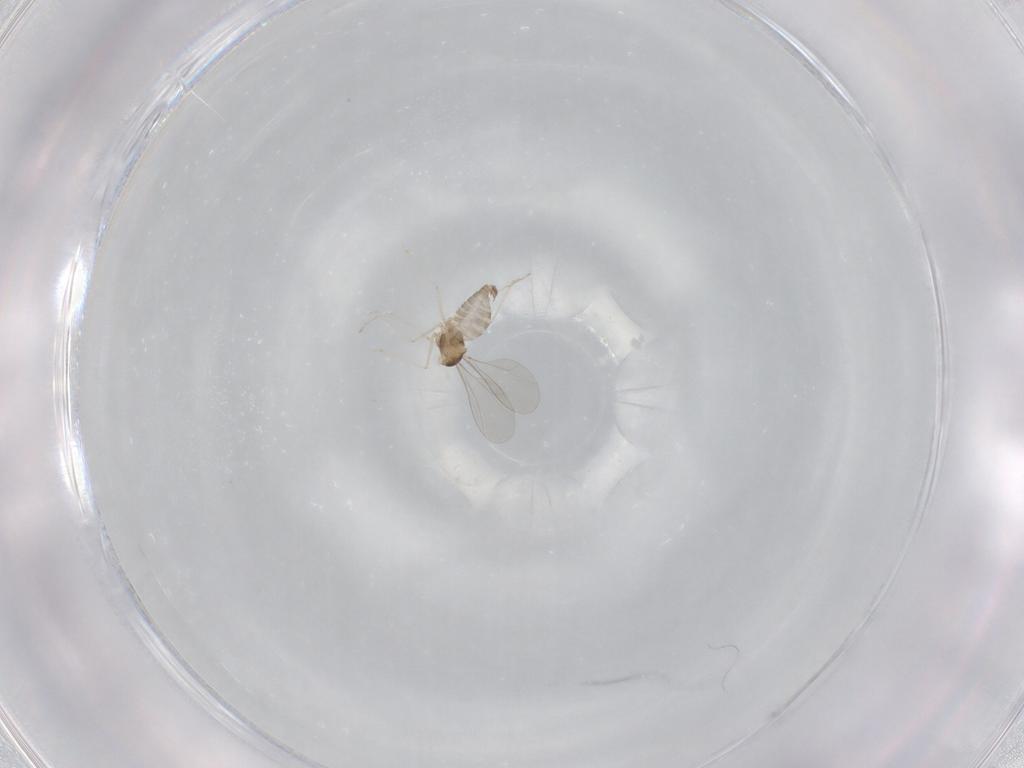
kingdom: Animalia
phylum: Arthropoda
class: Insecta
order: Diptera
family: Cecidomyiidae
